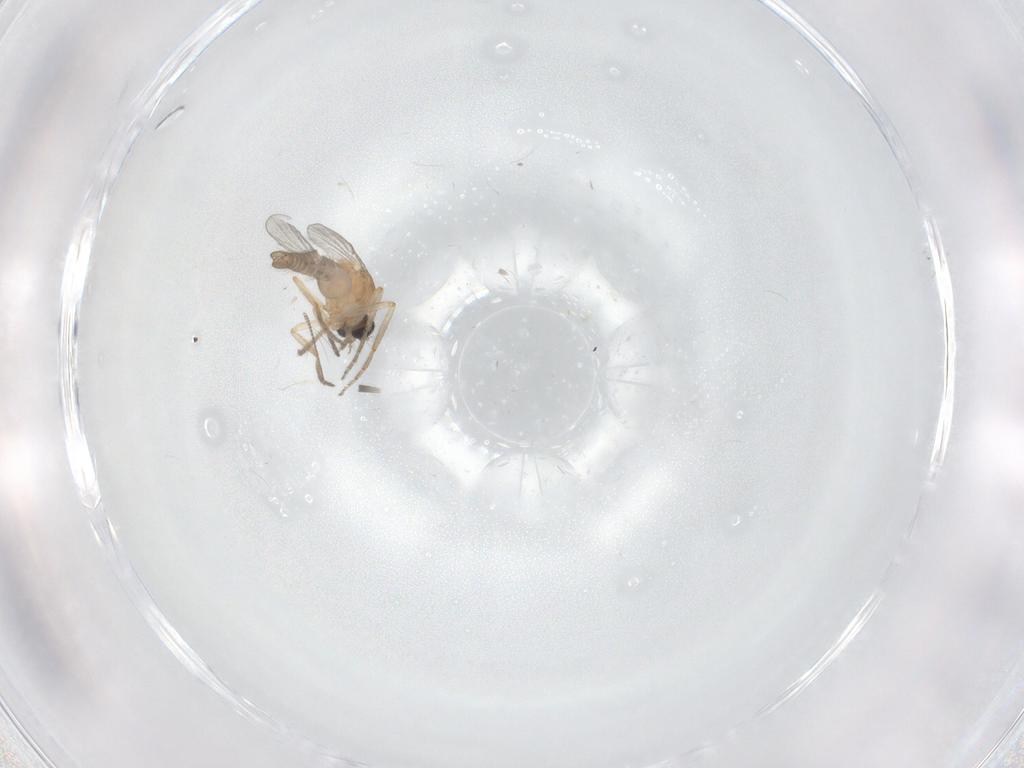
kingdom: Animalia
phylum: Arthropoda
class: Insecta
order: Diptera
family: Ceratopogonidae
